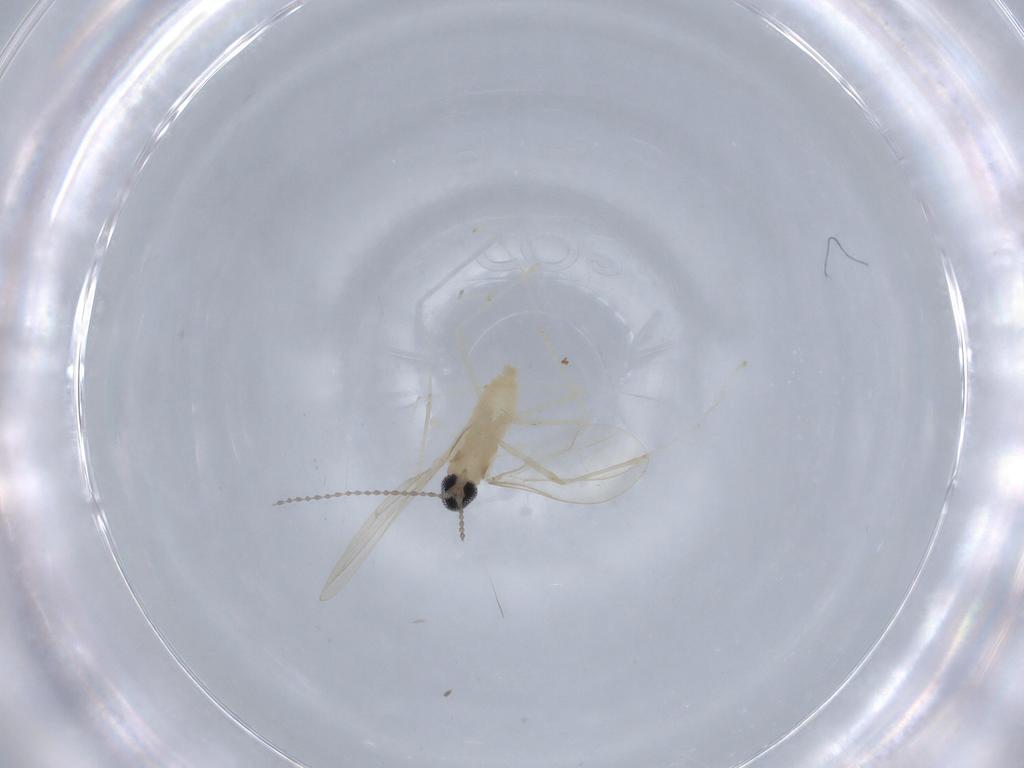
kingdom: Animalia
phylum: Arthropoda
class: Insecta
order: Diptera
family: Cecidomyiidae
